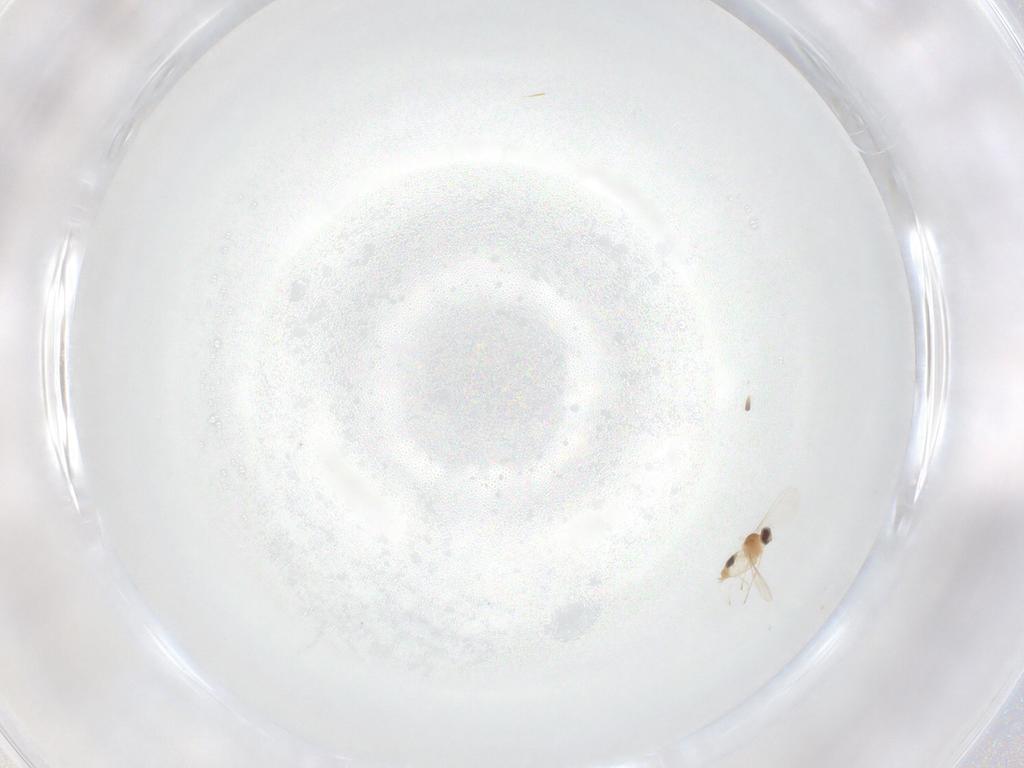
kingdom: Animalia
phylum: Arthropoda
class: Insecta
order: Diptera
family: Cecidomyiidae
